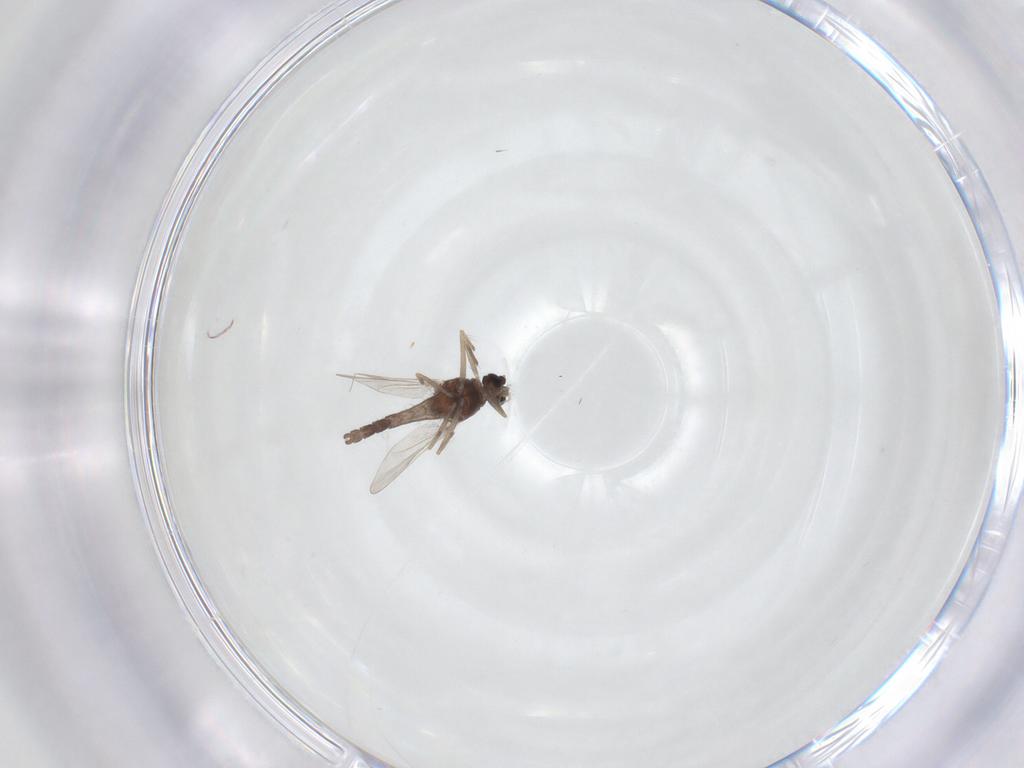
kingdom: Animalia
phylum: Arthropoda
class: Insecta
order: Diptera
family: Chironomidae
